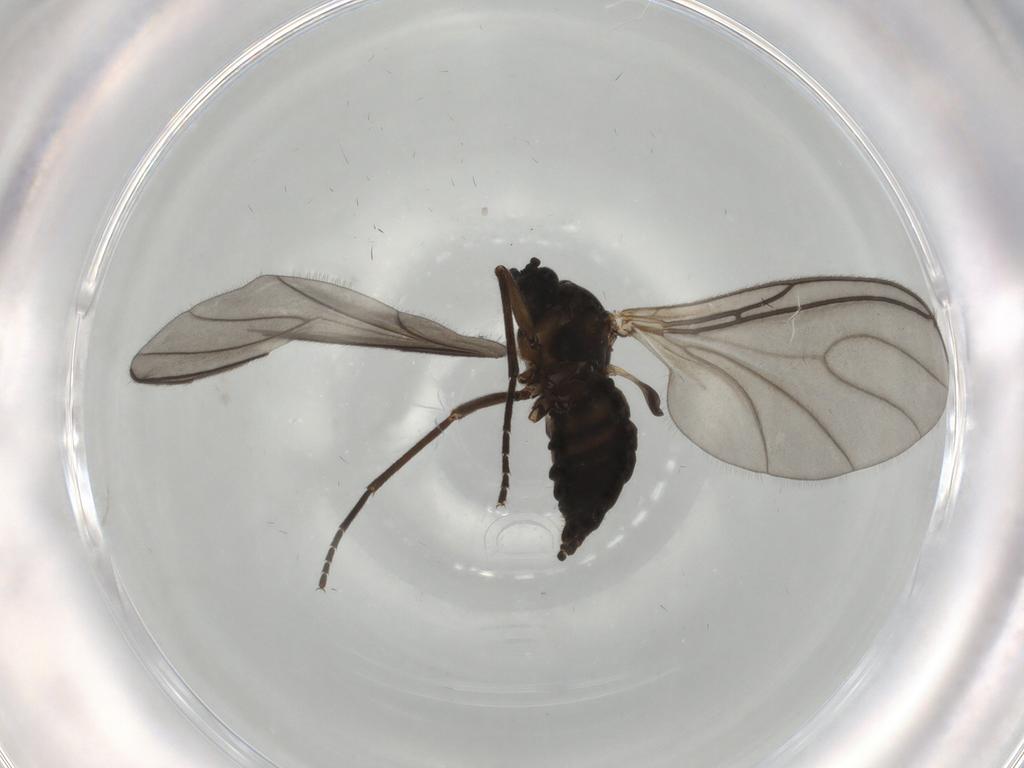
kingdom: Animalia
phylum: Arthropoda
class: Insecta
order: Diptera
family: Sciaridae
